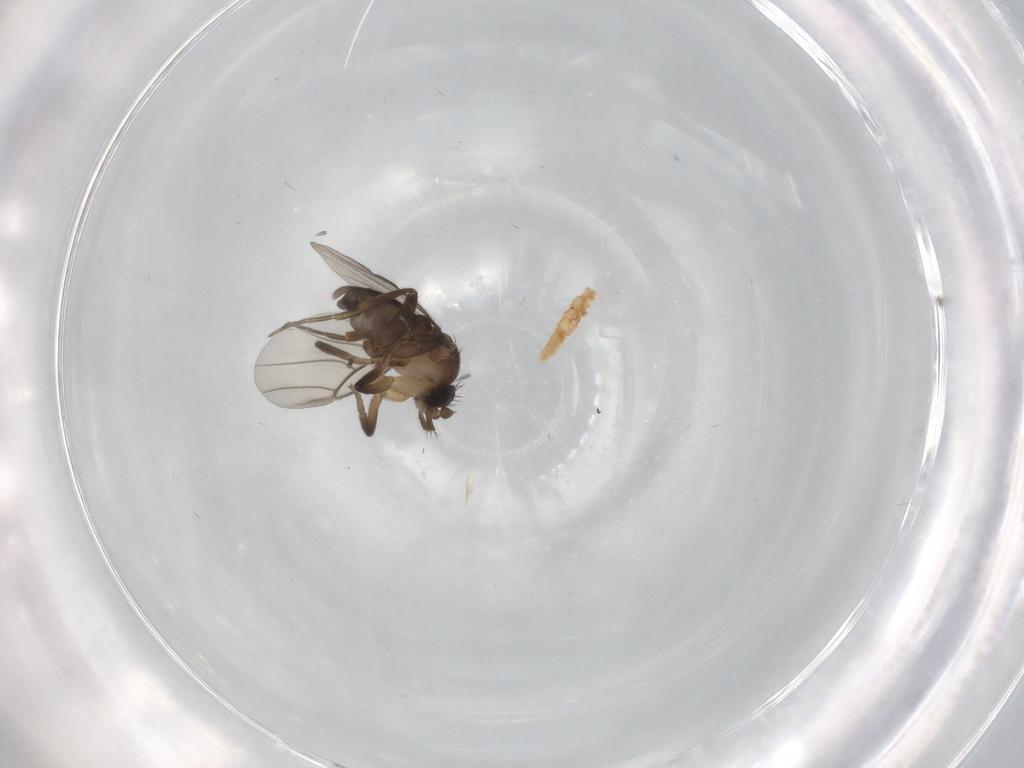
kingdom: Animalia
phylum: Arthropoda
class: Insecta
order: Diptera
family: Phoridae
